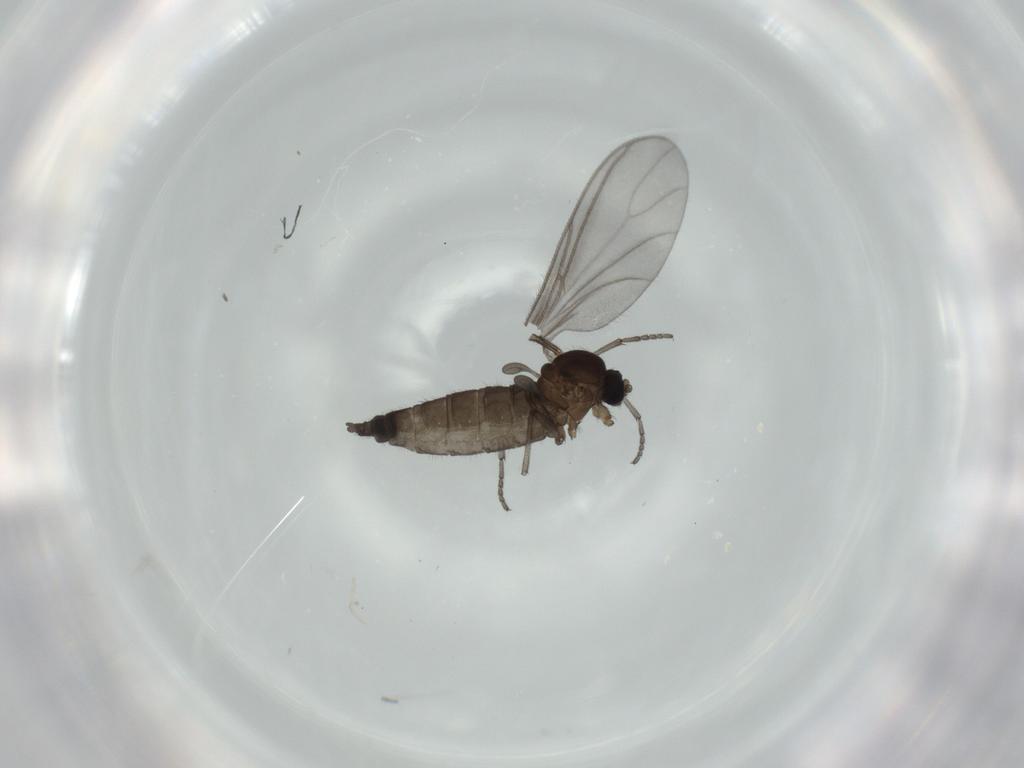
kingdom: Animalia
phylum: Arthropoda
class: Insecta
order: Diptera
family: Sciaridae
